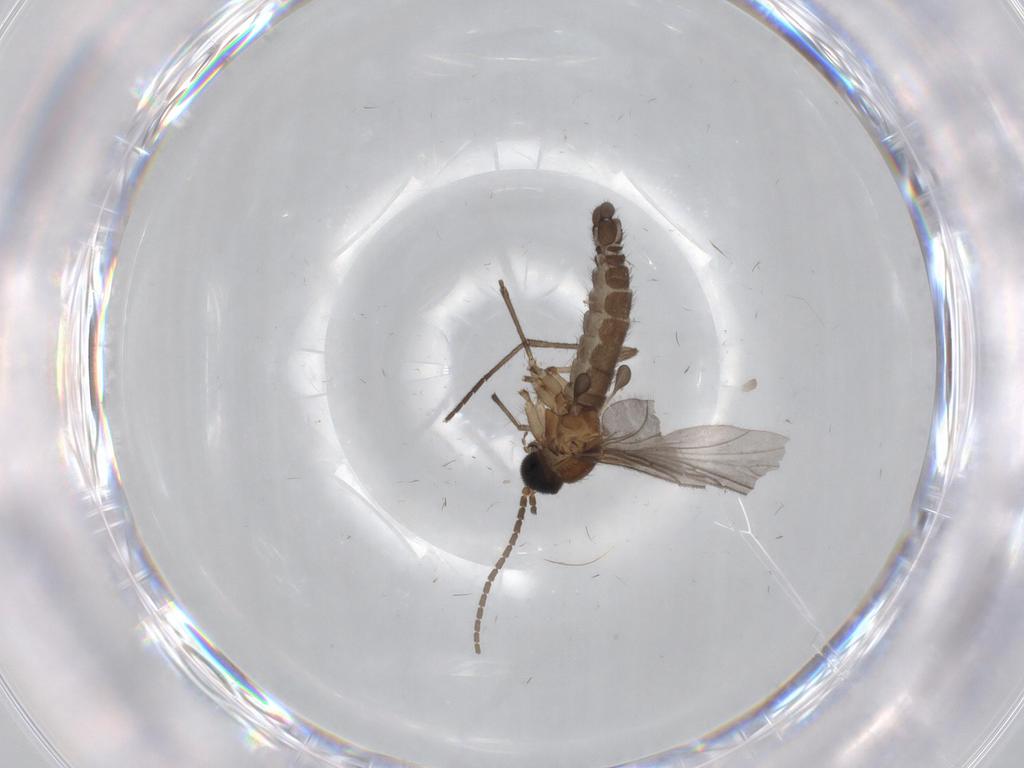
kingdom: Animalia
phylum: Arthropoda
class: Insecta
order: Diptera
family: Sciaridae
